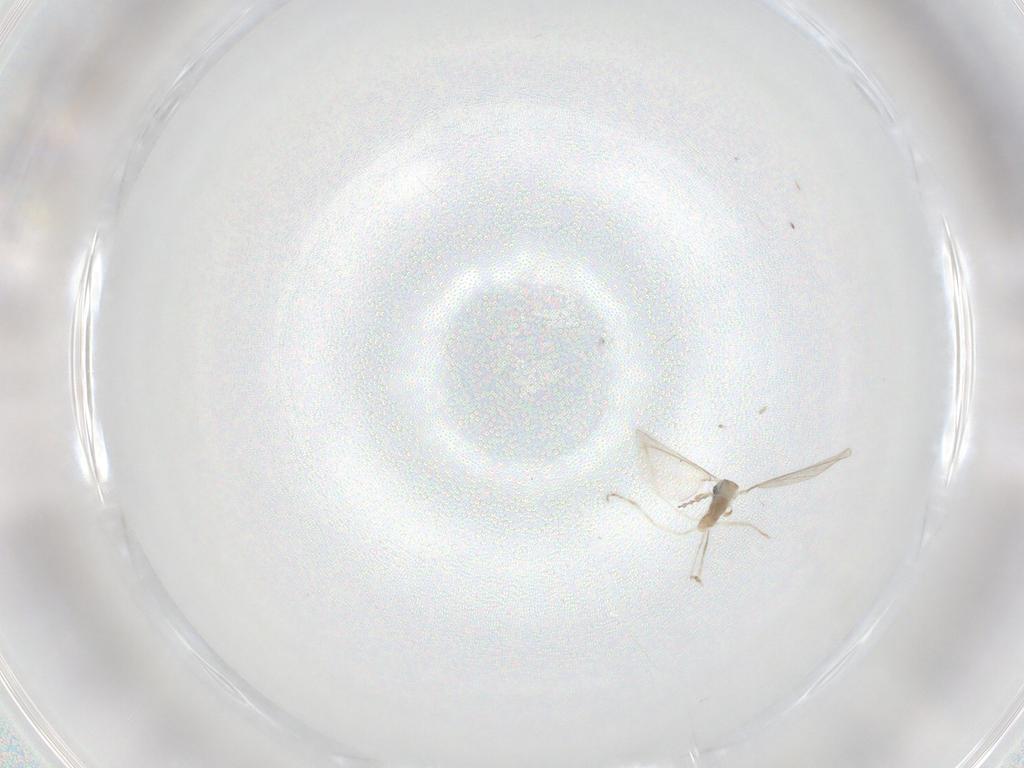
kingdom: Animalia
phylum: Arthropoda
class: Insecta
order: Diptera
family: Cecidomyiidae
